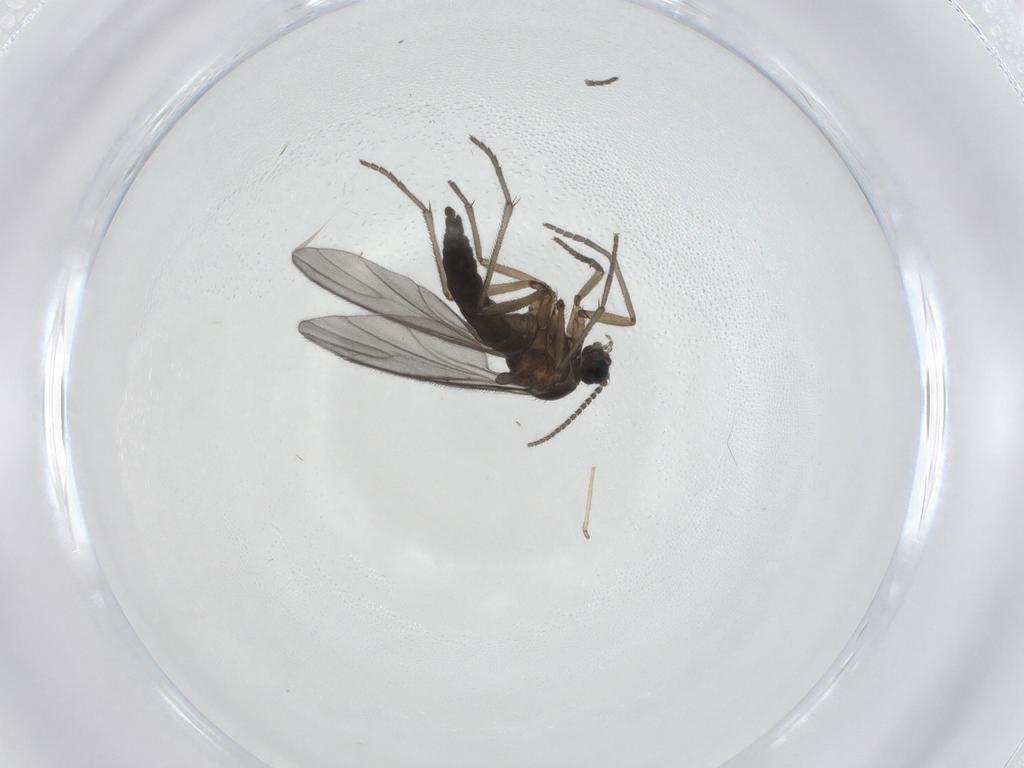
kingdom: Animalia
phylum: Arthropoda
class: Insecta
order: Diptera
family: Sciaridae
